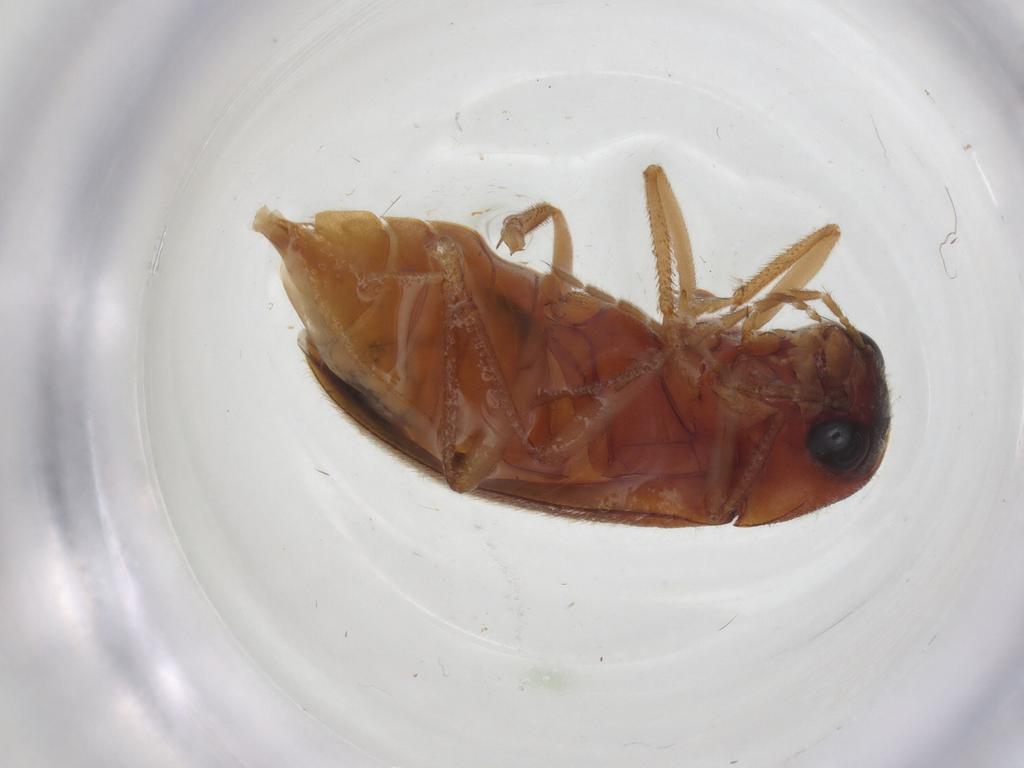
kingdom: Animalia
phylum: Arthropoda
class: Insecta
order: Coleoptera
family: Ptilodactylidae
